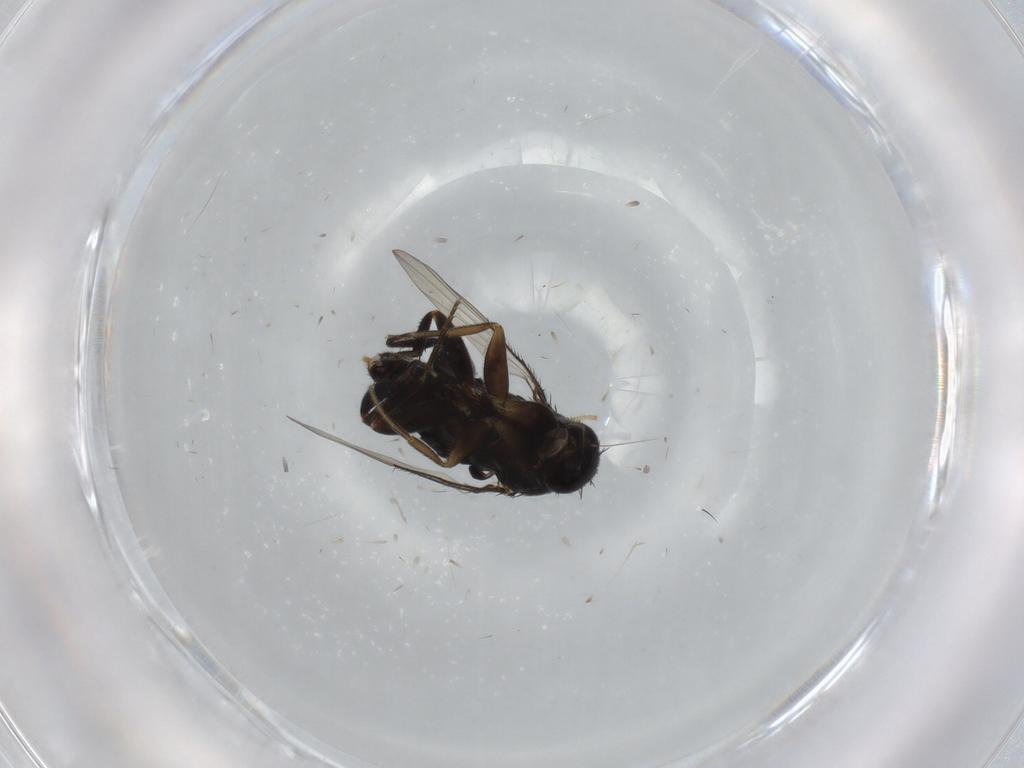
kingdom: Animalia
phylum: Arthropoda
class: Insecta
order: Diptera
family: Phoridae
